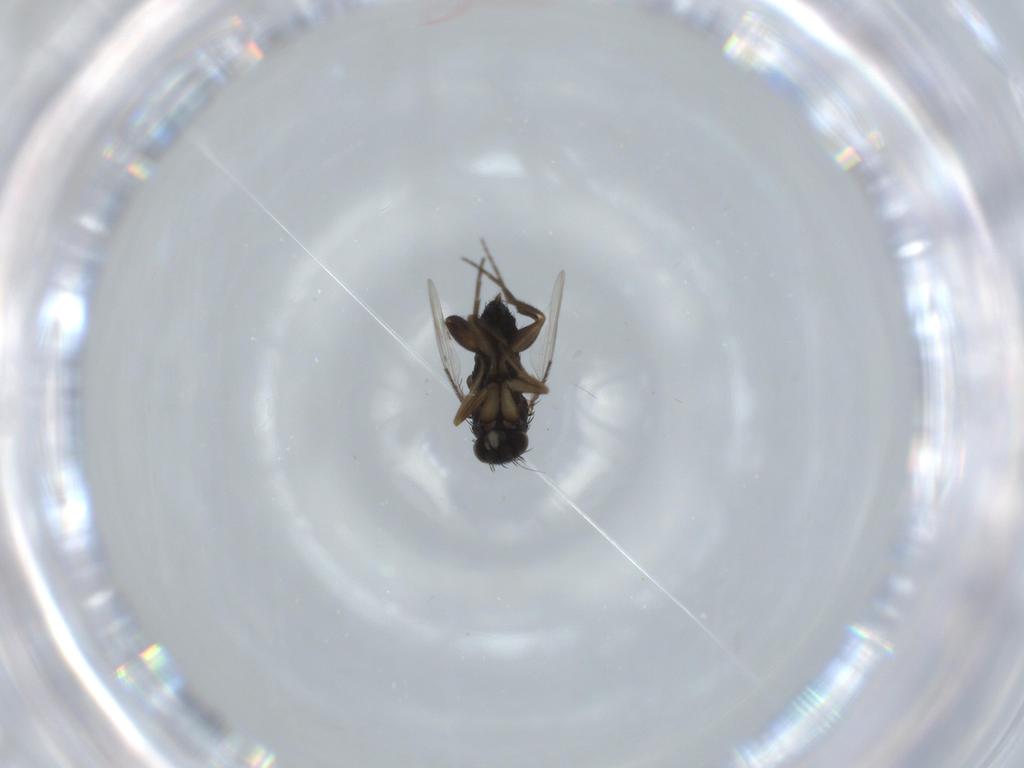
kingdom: Animalia
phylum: Arthropoda
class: Insecta
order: Diptera
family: Phoridae
